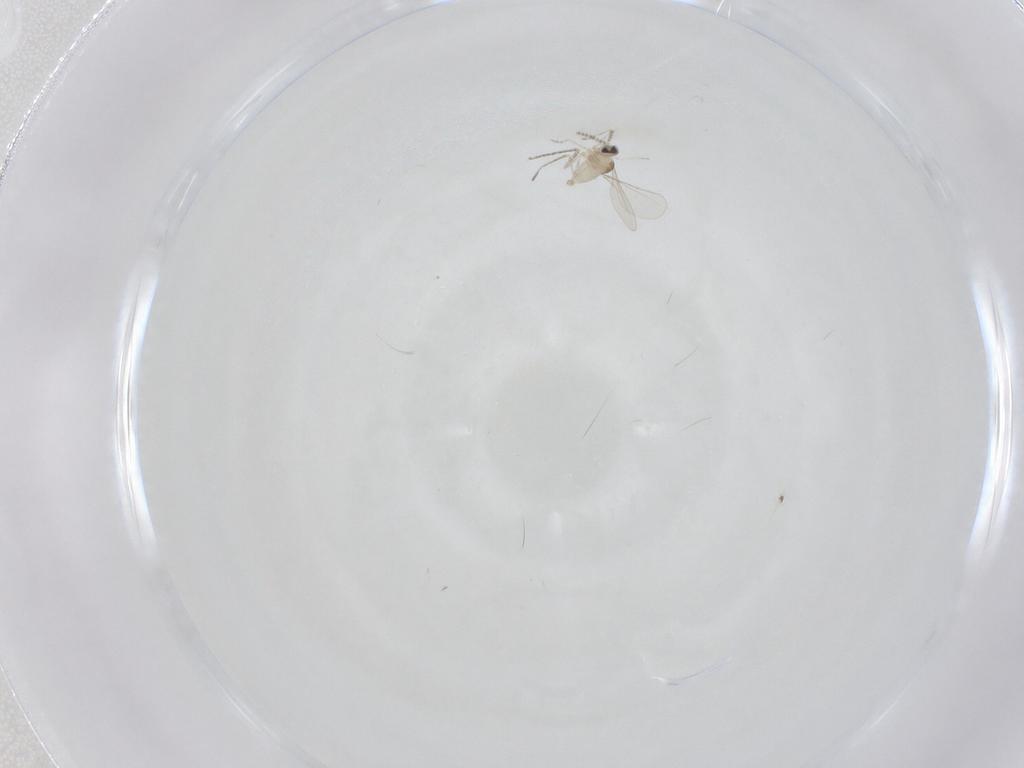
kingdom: Animalia
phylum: Arthropoda
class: Insecta
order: Diptera
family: Cecidomyiidae
